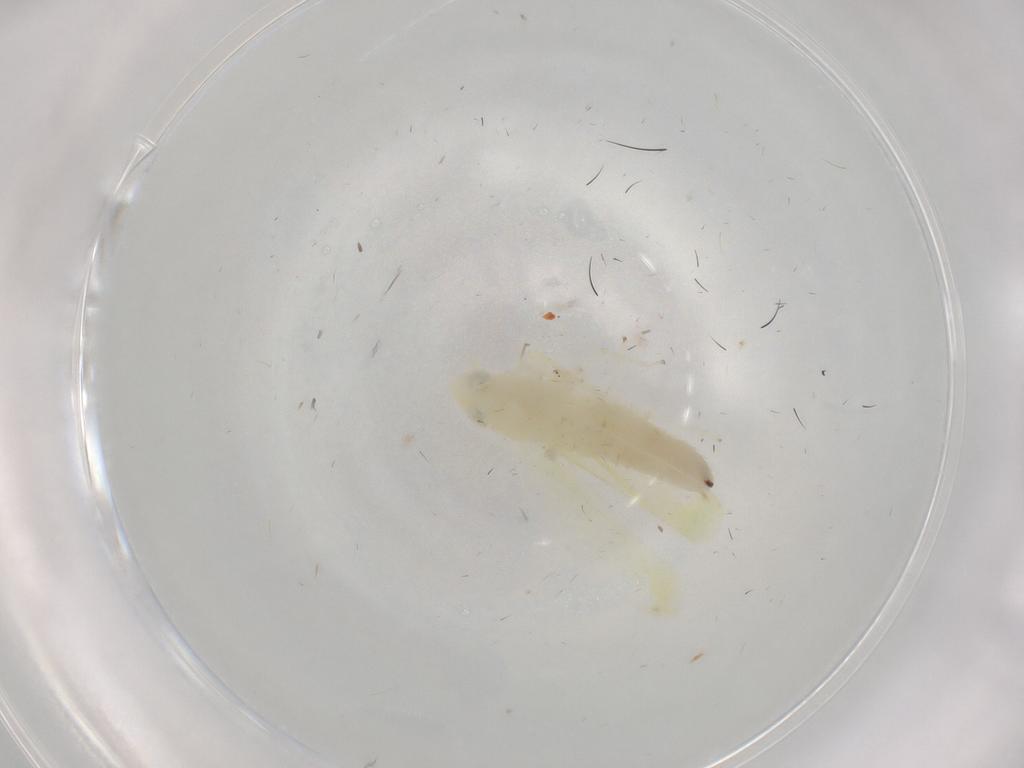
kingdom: Animalia
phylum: Arthropoda
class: Insecta
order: Hemiptera
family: Cicadellidae
